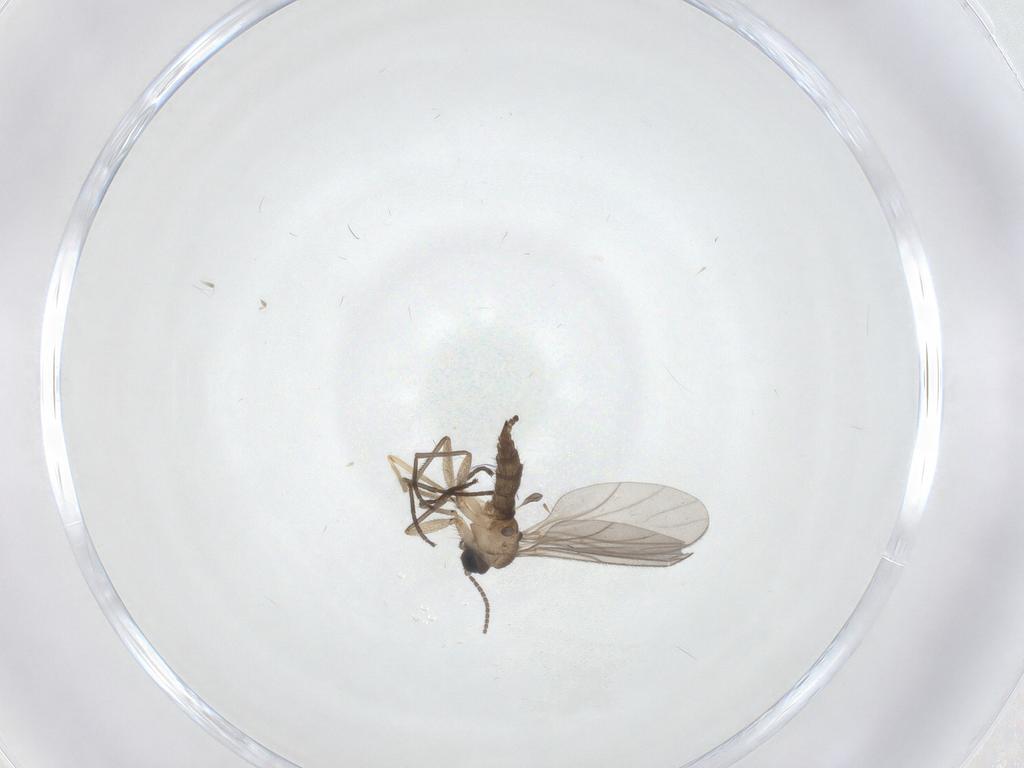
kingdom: Animalia
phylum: Arthropoda
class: Insecta
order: Diptera
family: Sciaridae
